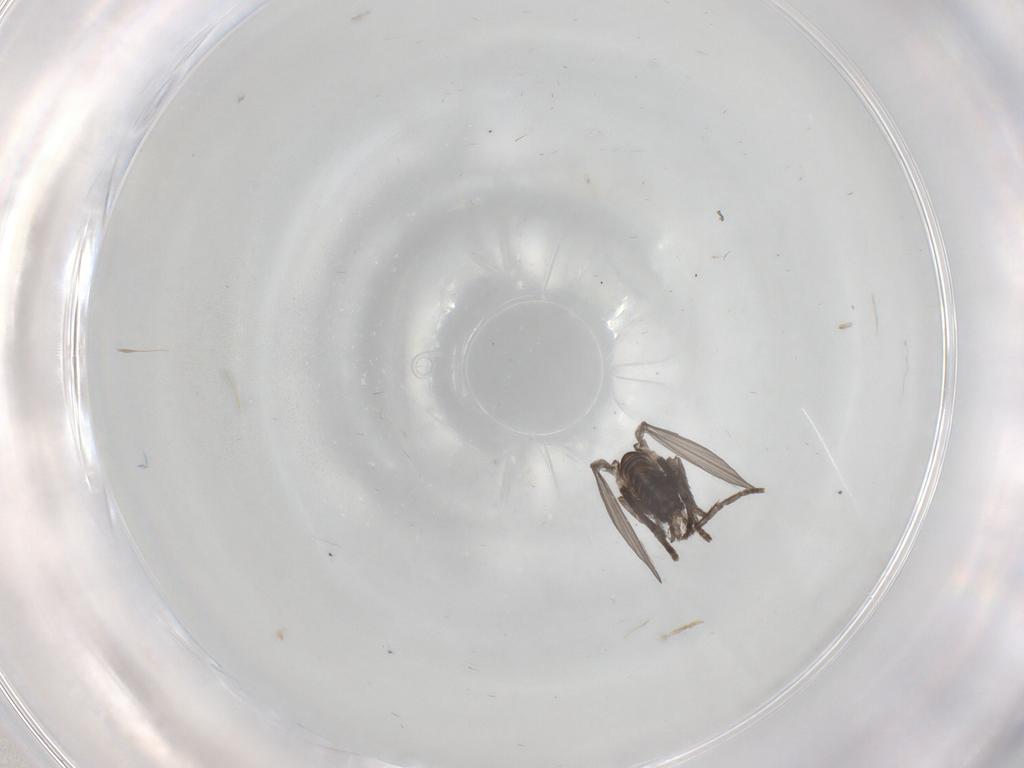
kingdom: Animalia
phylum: Arthropoda
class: Insecta
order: Diptera
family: Psychodidae
